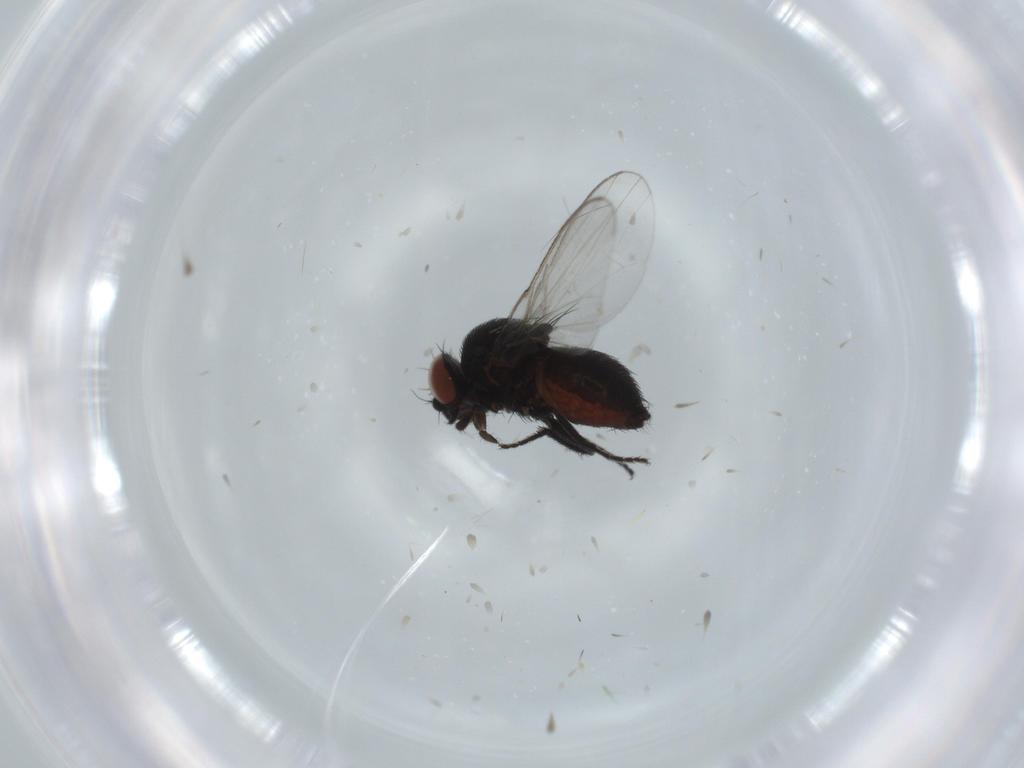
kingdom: Animalia
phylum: Arthropoda
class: Insecta
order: Diptera
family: Milichiidae
